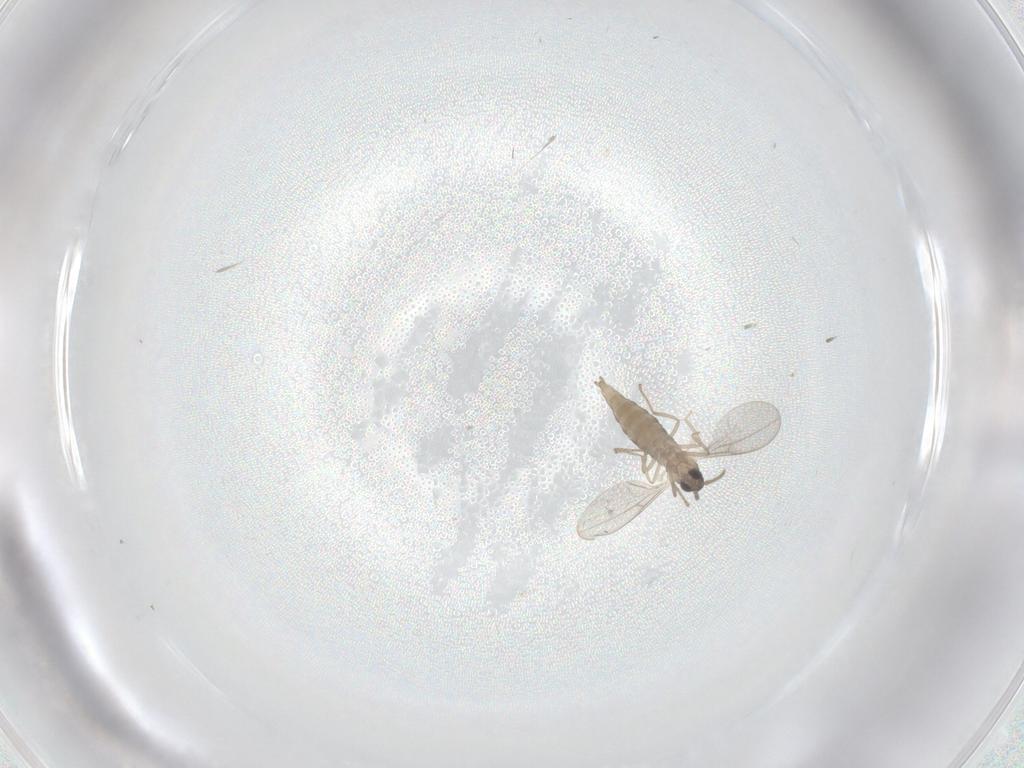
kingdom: Animalia
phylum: Arthropoda
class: Insecta
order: Diptera
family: Cecidomyiidae
